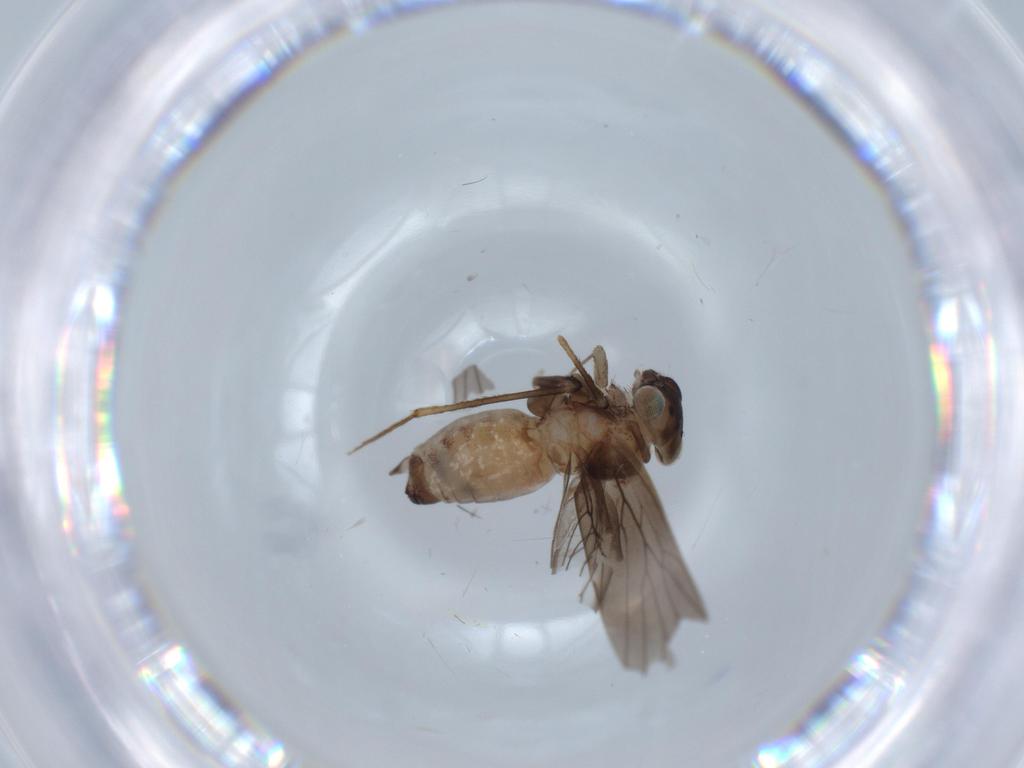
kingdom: Animalia
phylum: Arthropoda
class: Insecta
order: Psocodea
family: Lepidopsocidae
